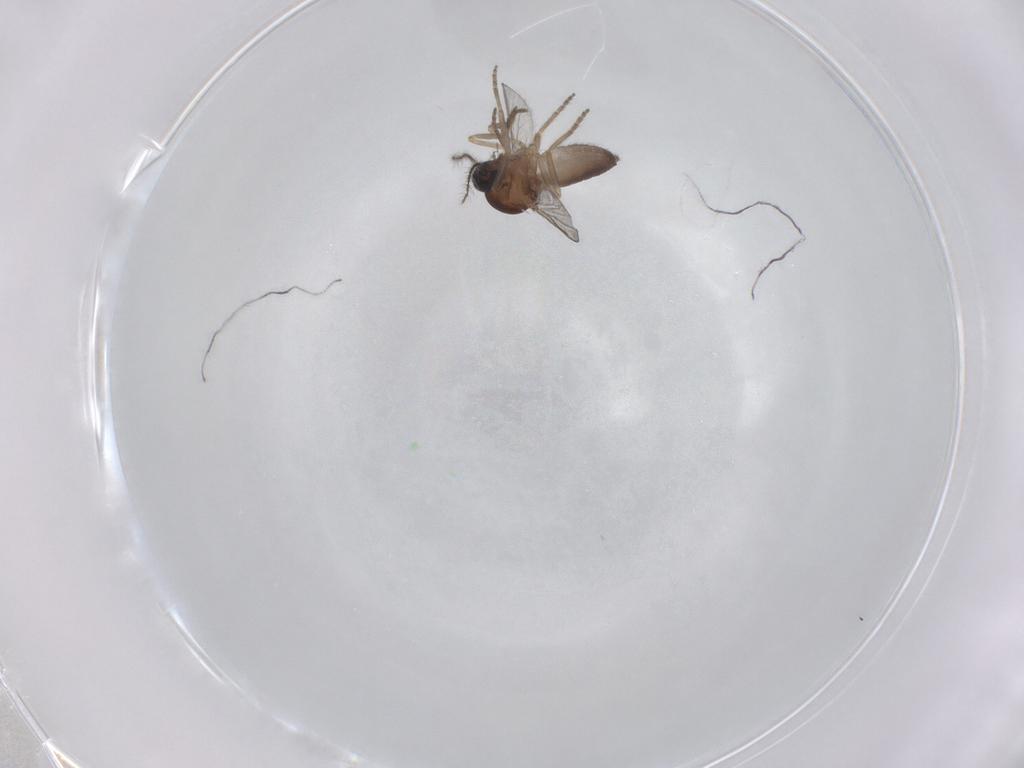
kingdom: Animalia
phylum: Arthropoda
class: Insecta
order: Diptera
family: Ceratopogonidae
